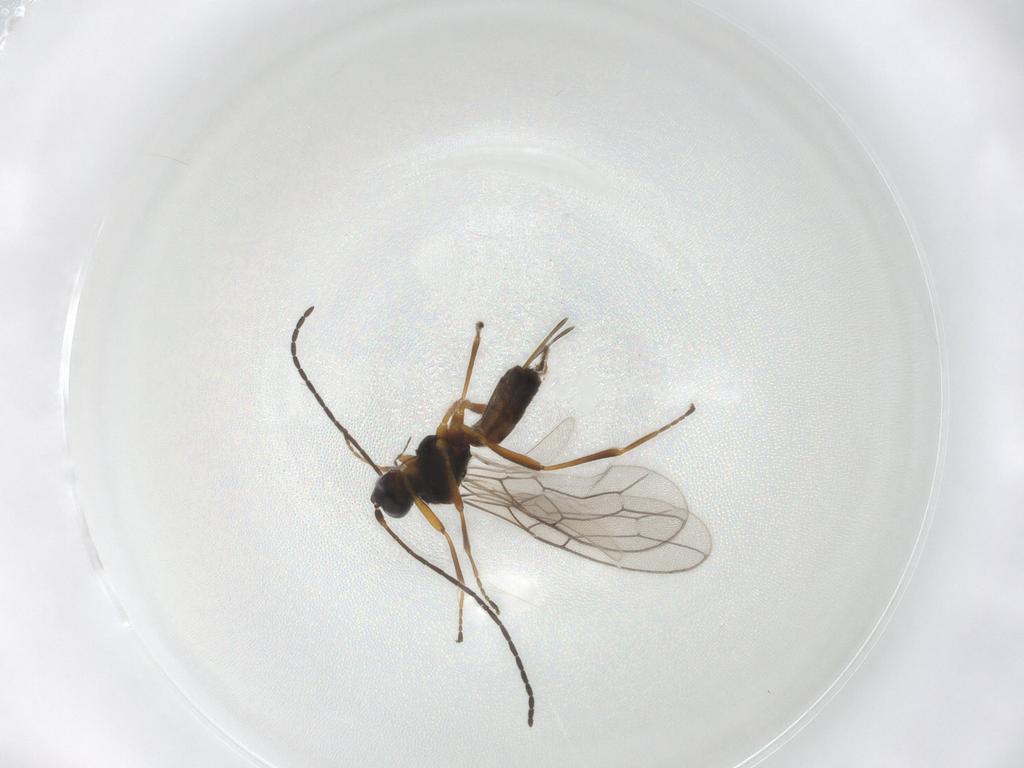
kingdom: Animalia
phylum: Arthropoda
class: Insecta
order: Hymenoptera
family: Braconidae
